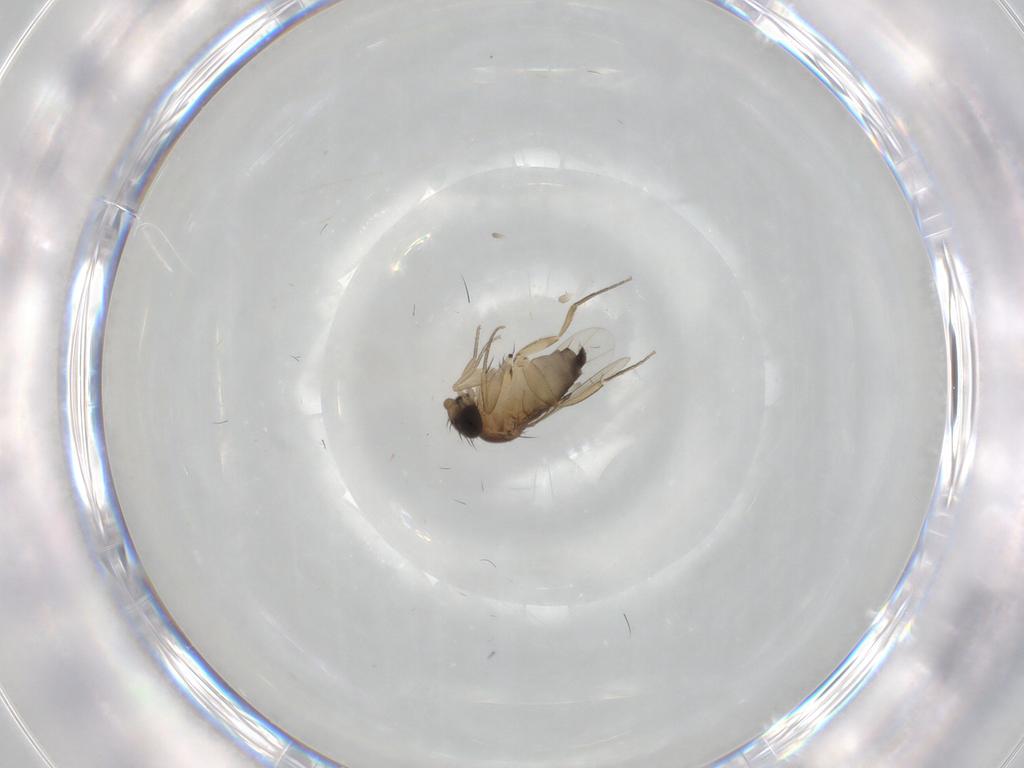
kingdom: Animalia
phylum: Arthropoda
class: Insecta
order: Diptera
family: Phoridae
